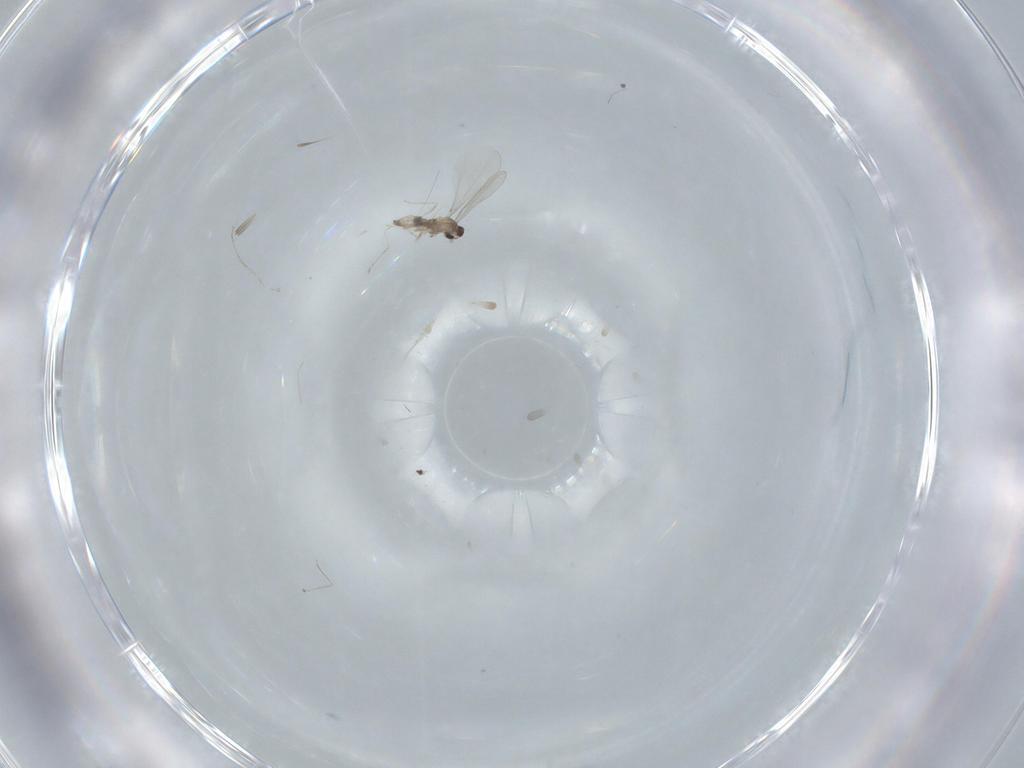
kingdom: Animalia
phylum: Arthropoda
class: Insecta
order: Diptera
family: Cecidomyiidae
